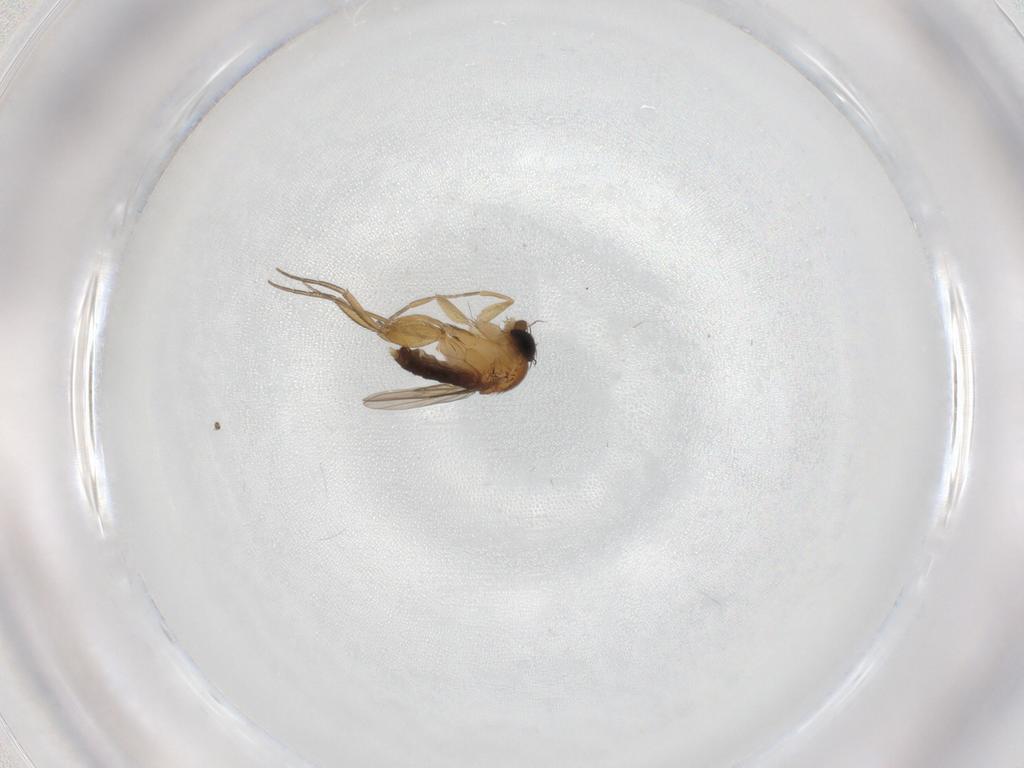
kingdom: Animalia
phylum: Arthropoda
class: Insecta
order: Diptera
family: Phoridae
